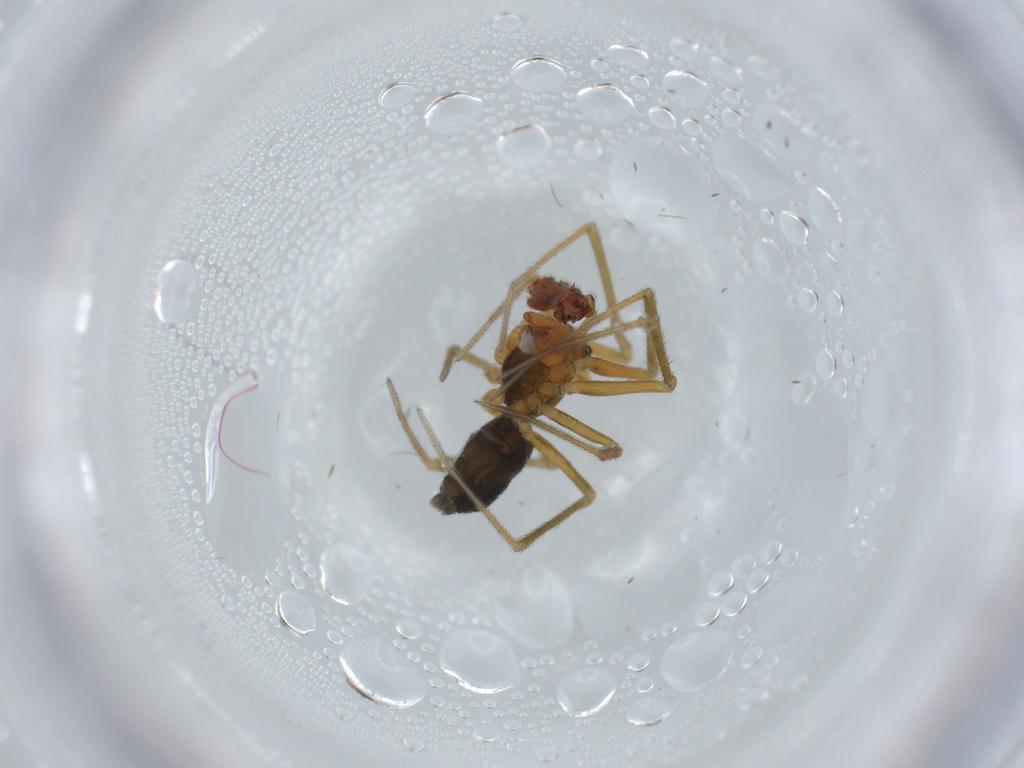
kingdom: Animalia
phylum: Arthropoda
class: Arachnida
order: Araneae
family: Linyphiidae
